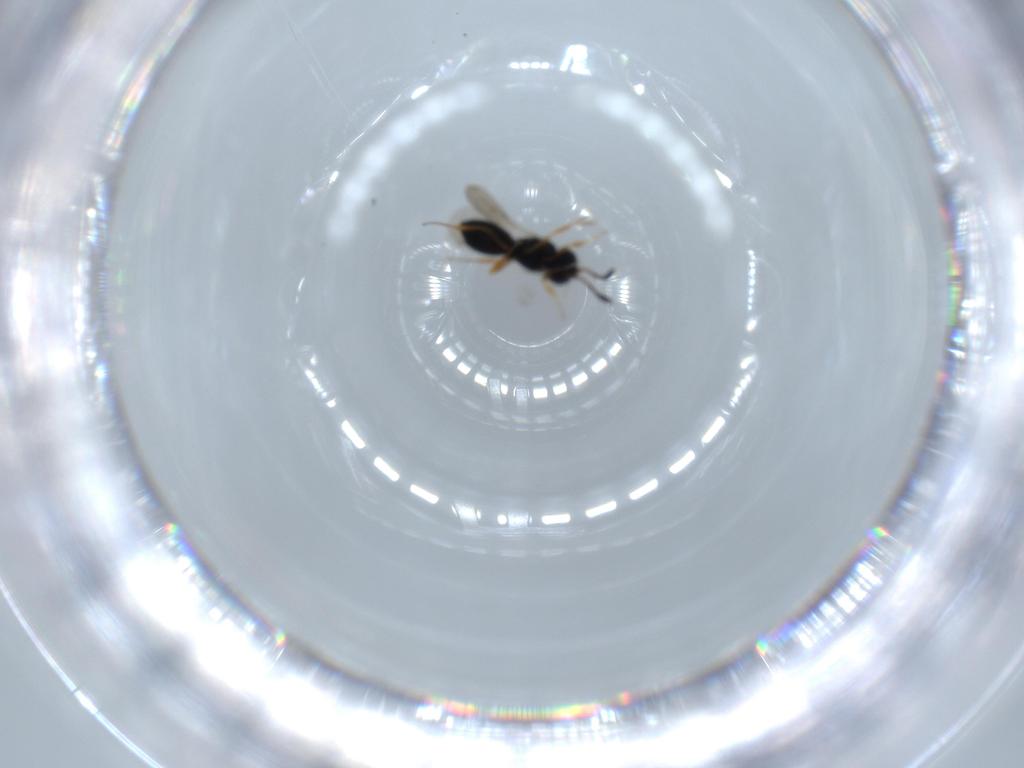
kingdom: Animalia
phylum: Arthropoda
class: Insecta
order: Hymenoptera
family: Scelionidae
